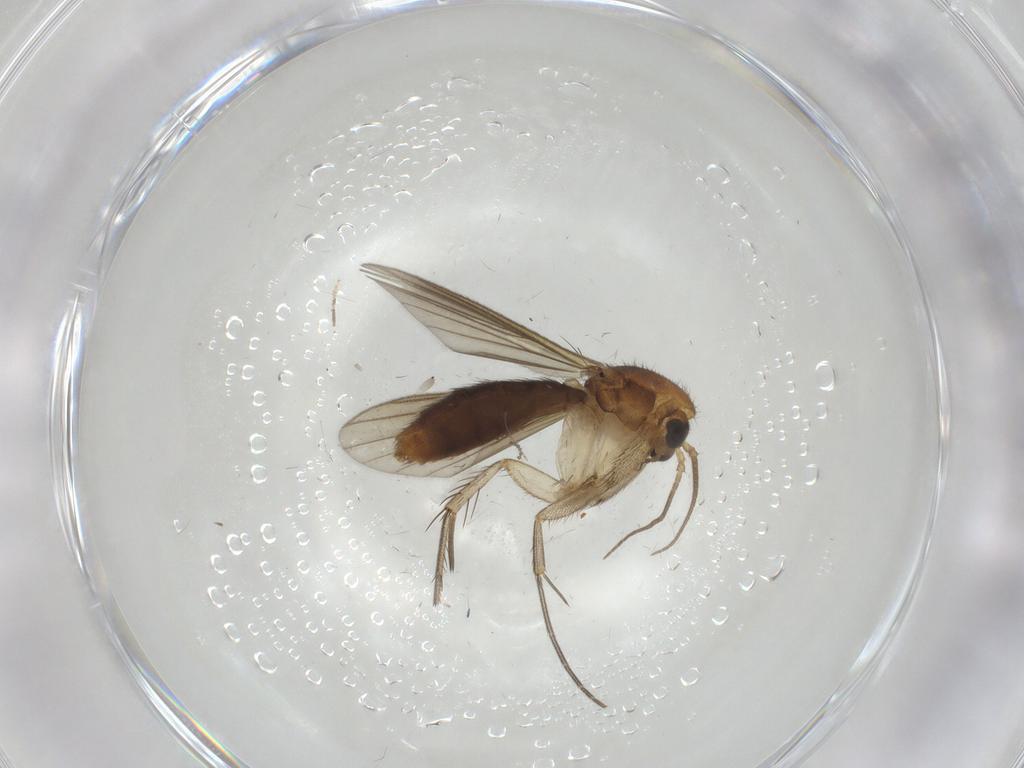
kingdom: Animalia
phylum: Arthropoda
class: Insecta
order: Diptera
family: Mycetophilidae
